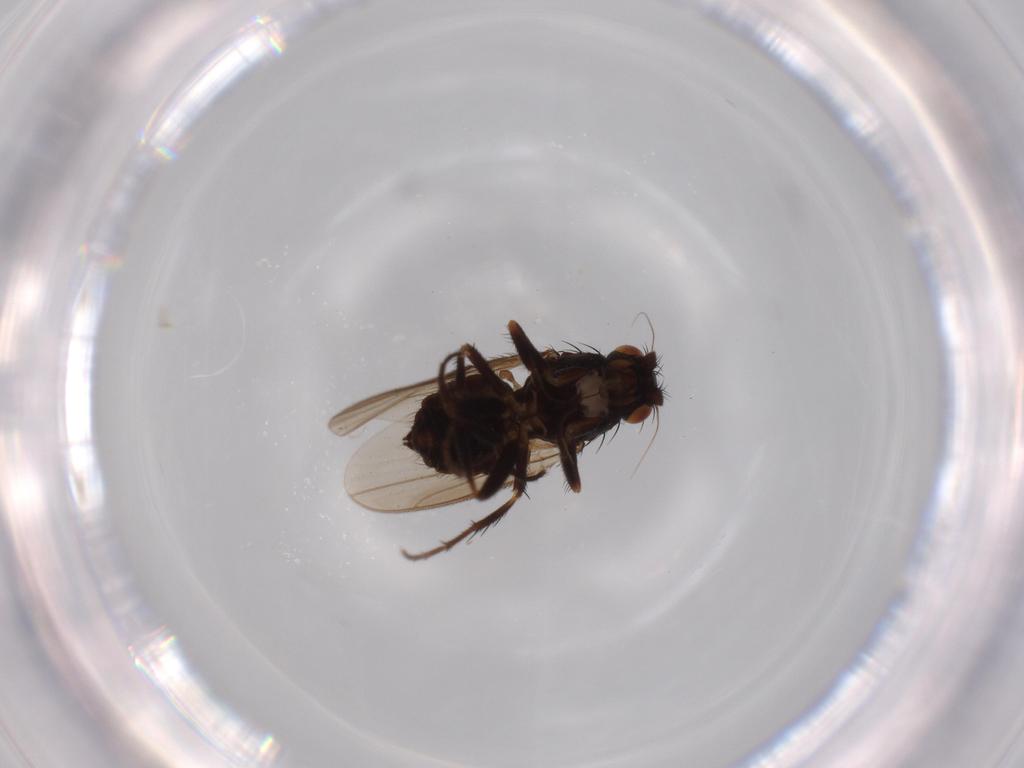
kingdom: Animalia
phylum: Arthropoda
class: Insecta
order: Diptera
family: Sphaeroceridae
